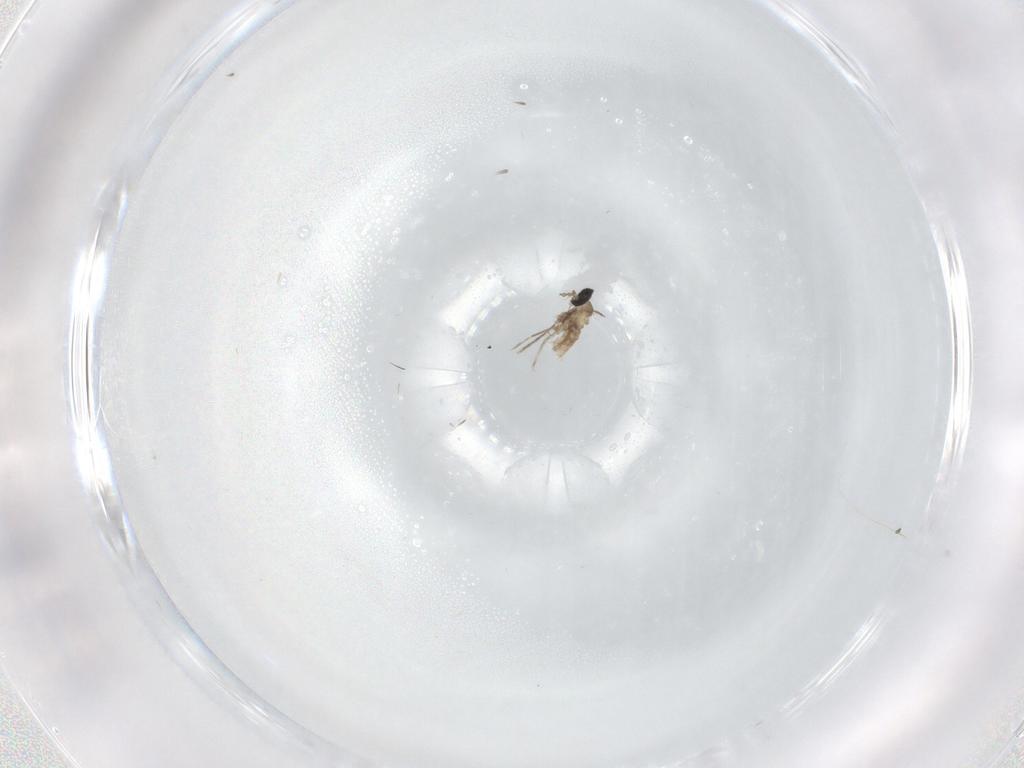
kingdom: Animalia
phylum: Arthropoda
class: Insecta
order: Diptera
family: Cecidomyiidae
